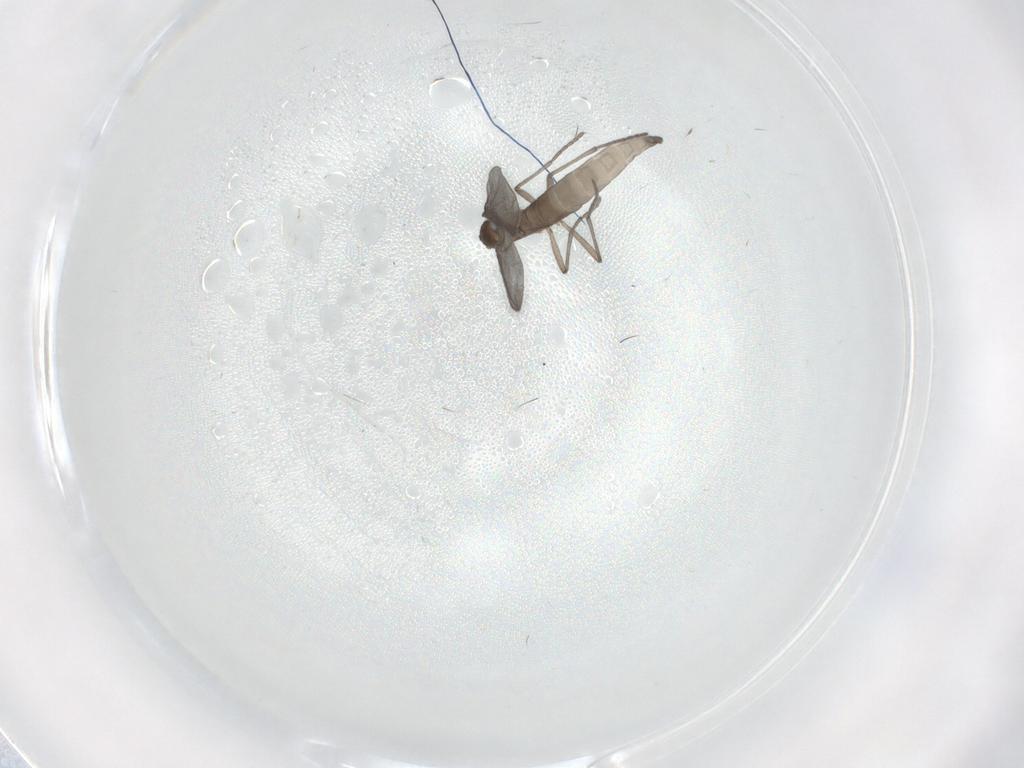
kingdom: Animalia
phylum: Arthropoda
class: Insecta
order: Diptera
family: Sciaridae
